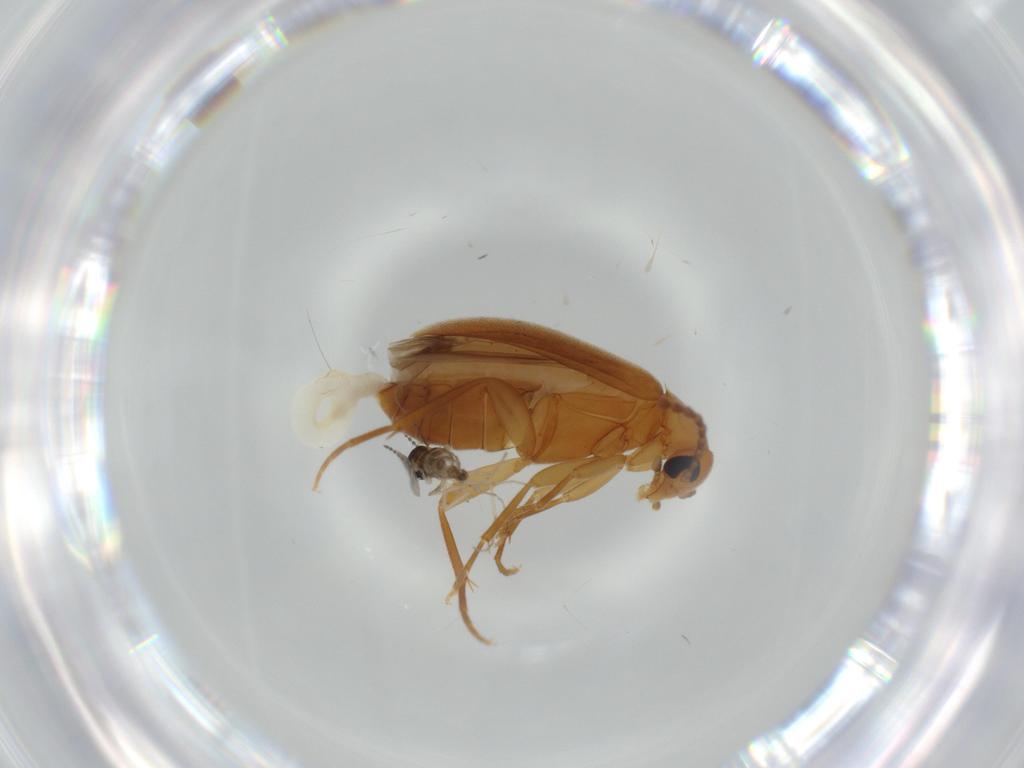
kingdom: Animalia
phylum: Arthropoda
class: Insecta
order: Coleoptera
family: Scraptiidae
